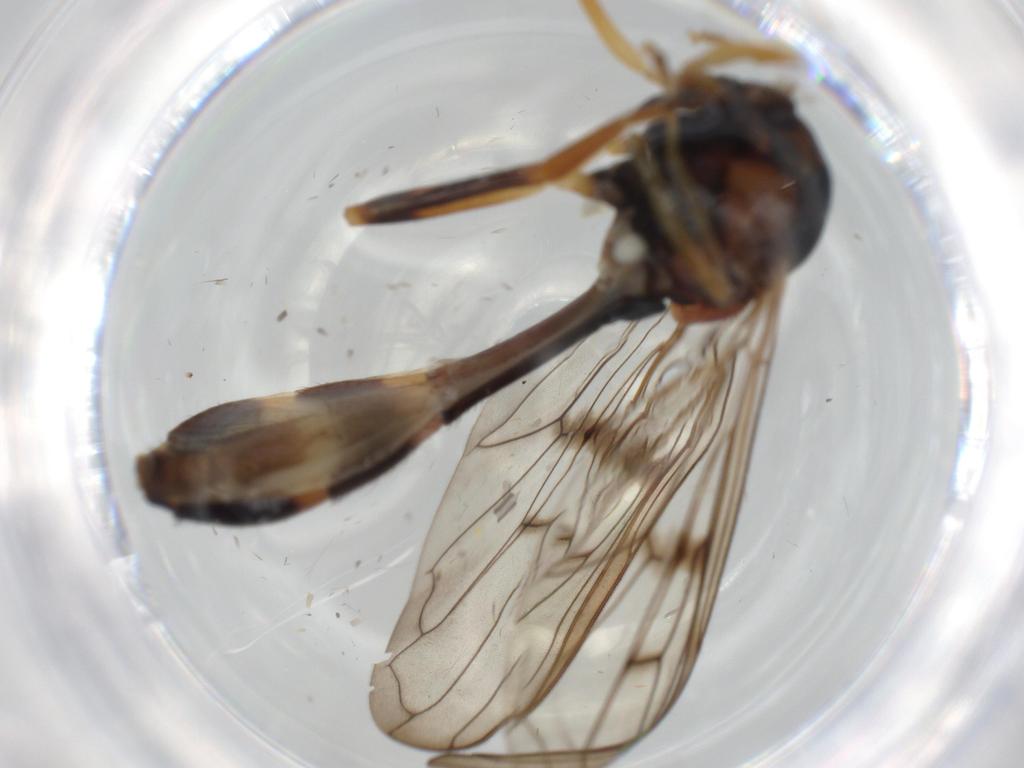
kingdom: Animalia
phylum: Arthropoda
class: Insecta
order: Diptera
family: Syrphidae
